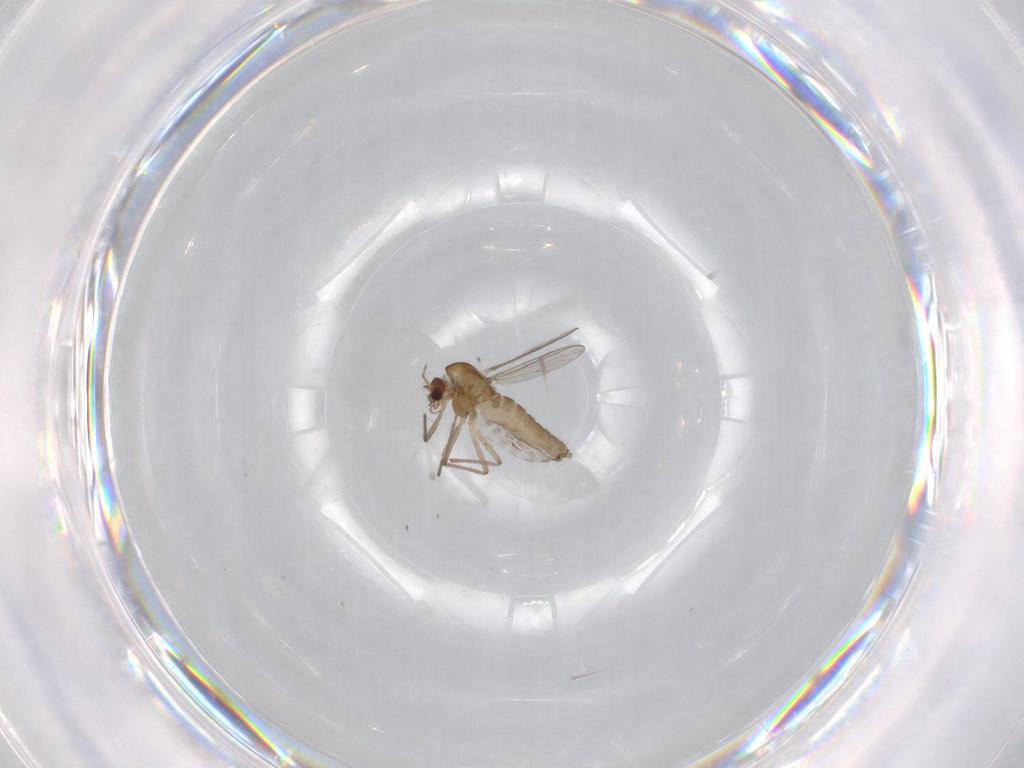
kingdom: Animalia
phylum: Arthropoda
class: Insecta
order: Diptera
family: Chironomidae
